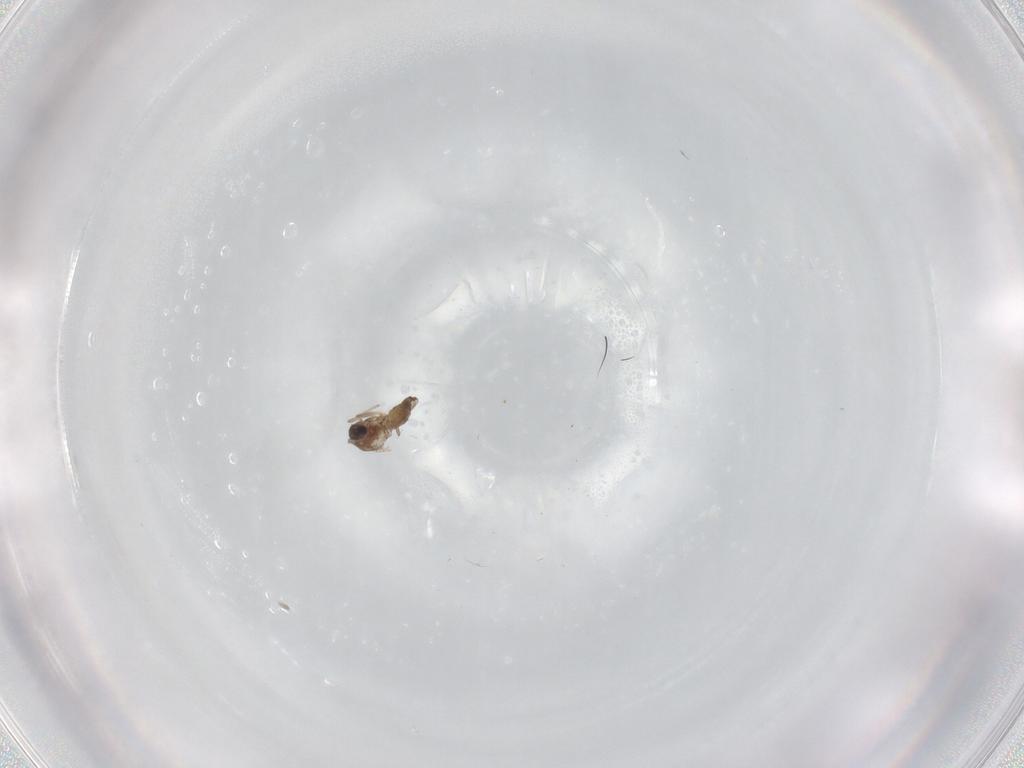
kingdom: Animalia
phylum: Arthropoda
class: Insecta
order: Diptera
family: Chironomidae
